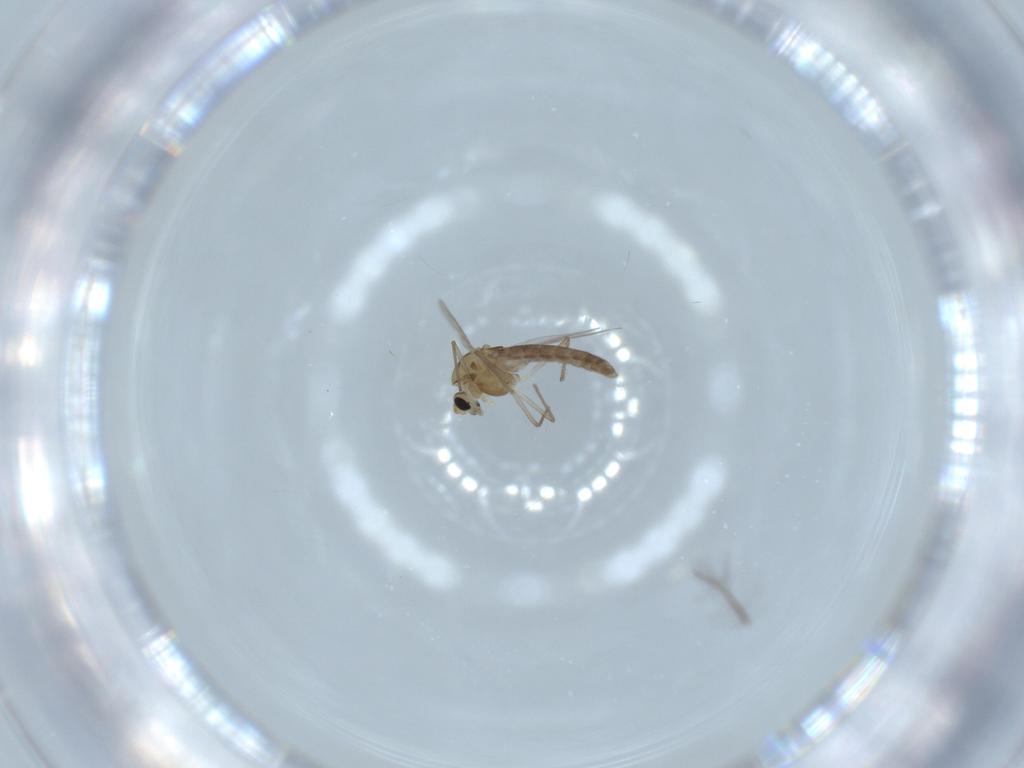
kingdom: Animalia
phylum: Arthropoda
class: Insecta
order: Diptera
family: Chironomidae
